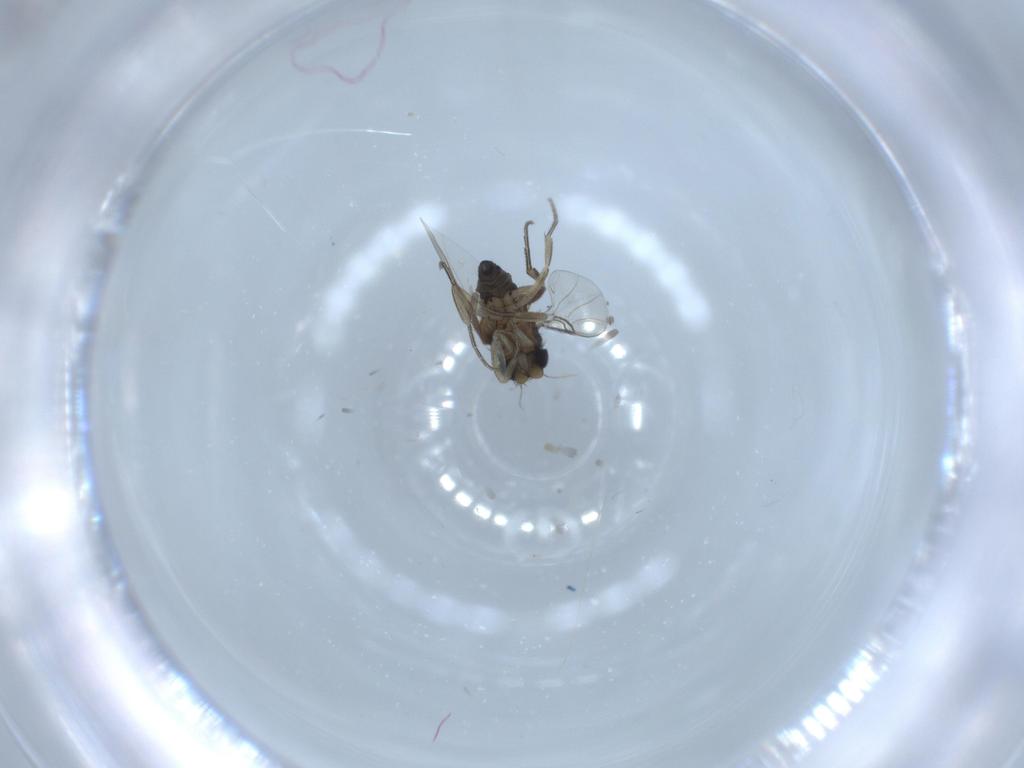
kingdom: Animalia
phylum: Arthropoda
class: Insecta
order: Diptera
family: Phoridae
